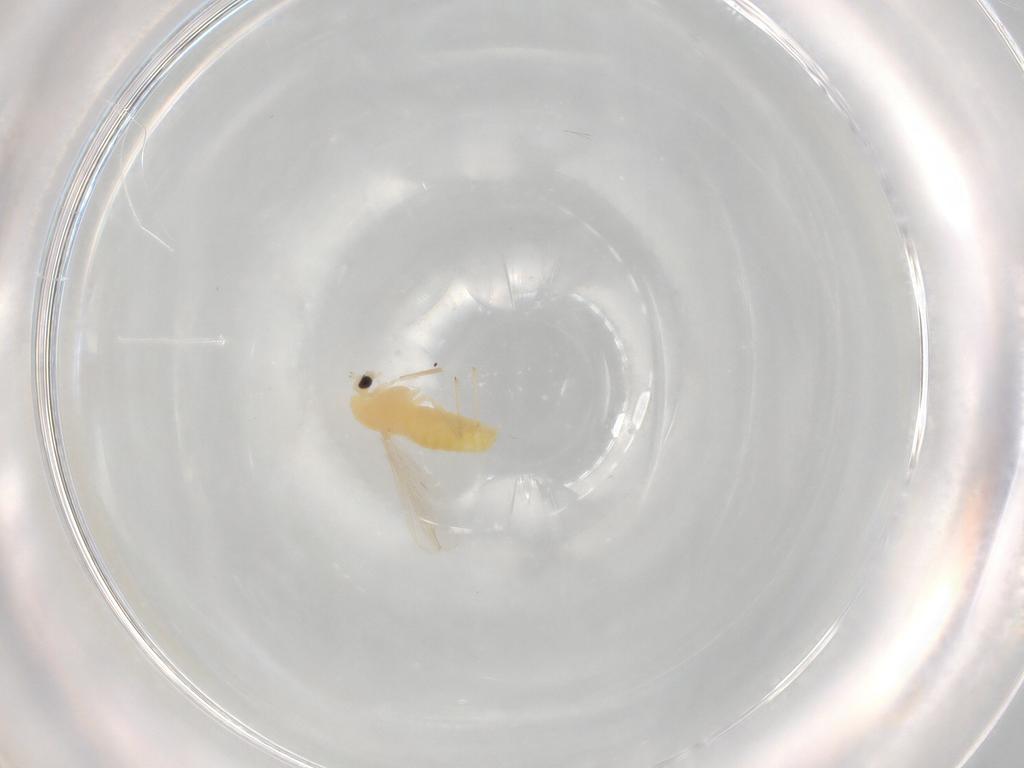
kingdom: Animalia
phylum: Arthropoda
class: Insecta
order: Diptera
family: Chironomidae
